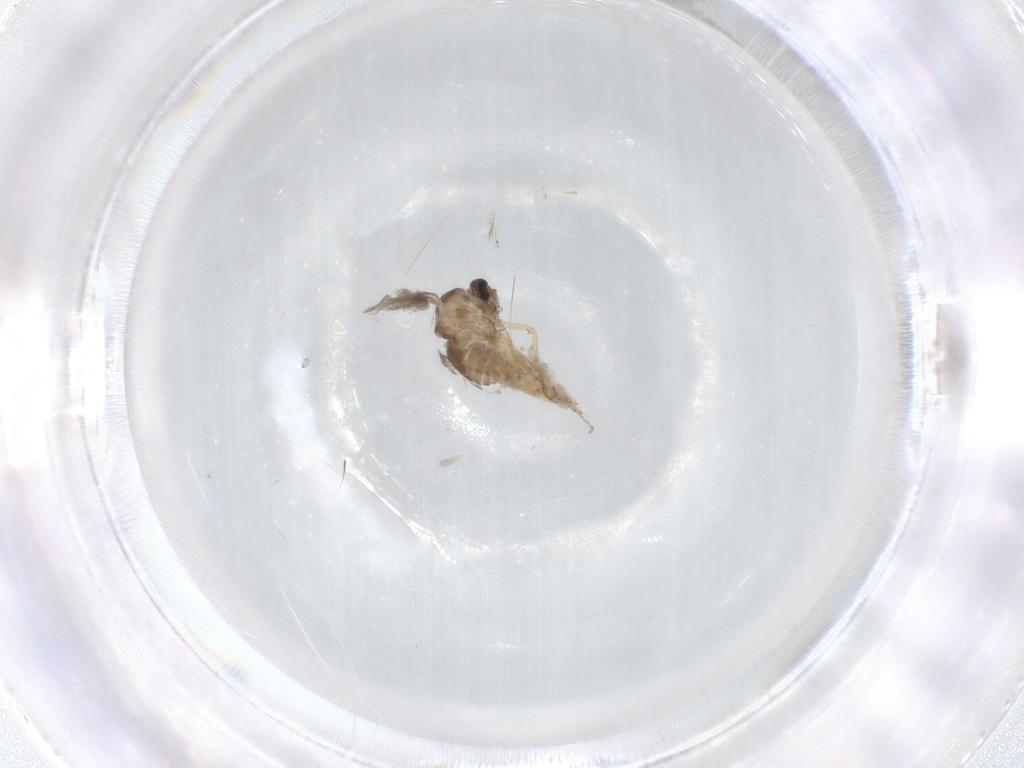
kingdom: Animalia
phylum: Arthropoda
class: Insecta
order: Diptera
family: Ceratopogonidae
